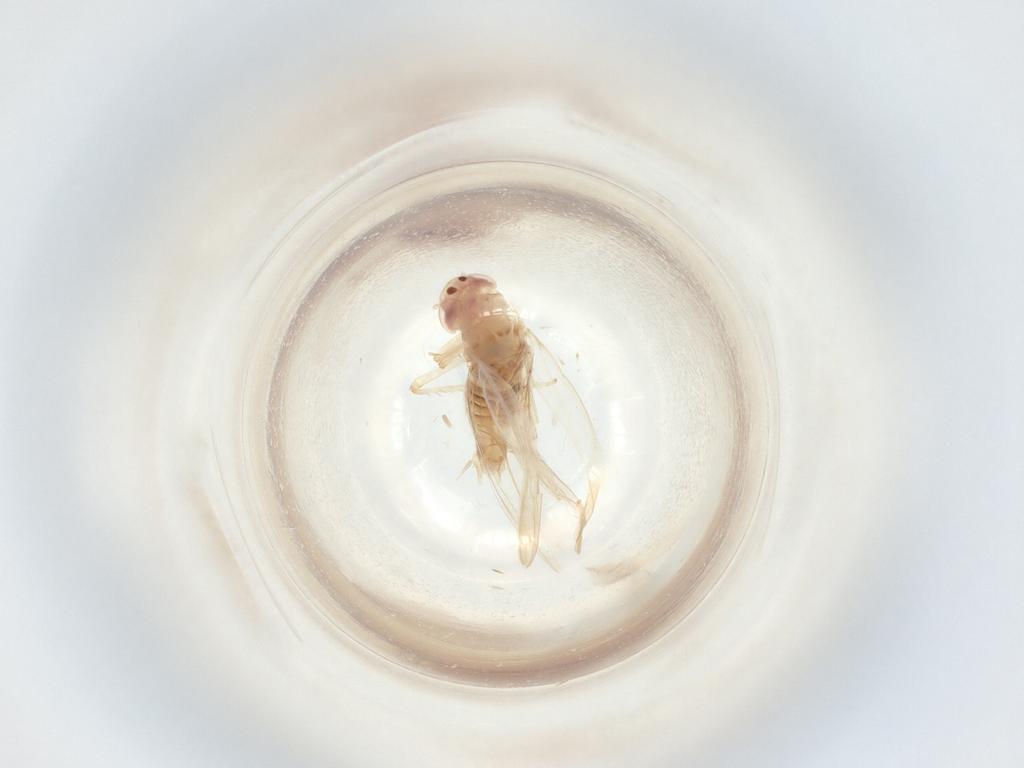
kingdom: Animalia
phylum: Arthropoda
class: Insecta
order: Hemiptera
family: Cicadellidae
